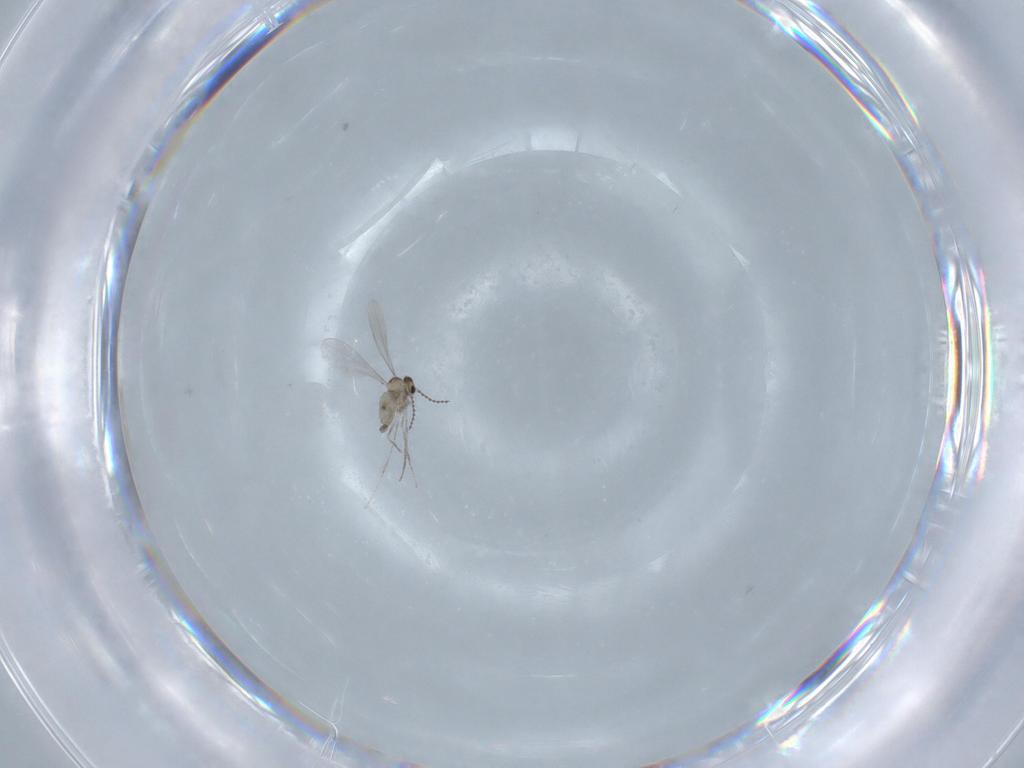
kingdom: Animalia
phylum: Arthropoda
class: Insecta
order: Diptera
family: Cecidomyiidae
